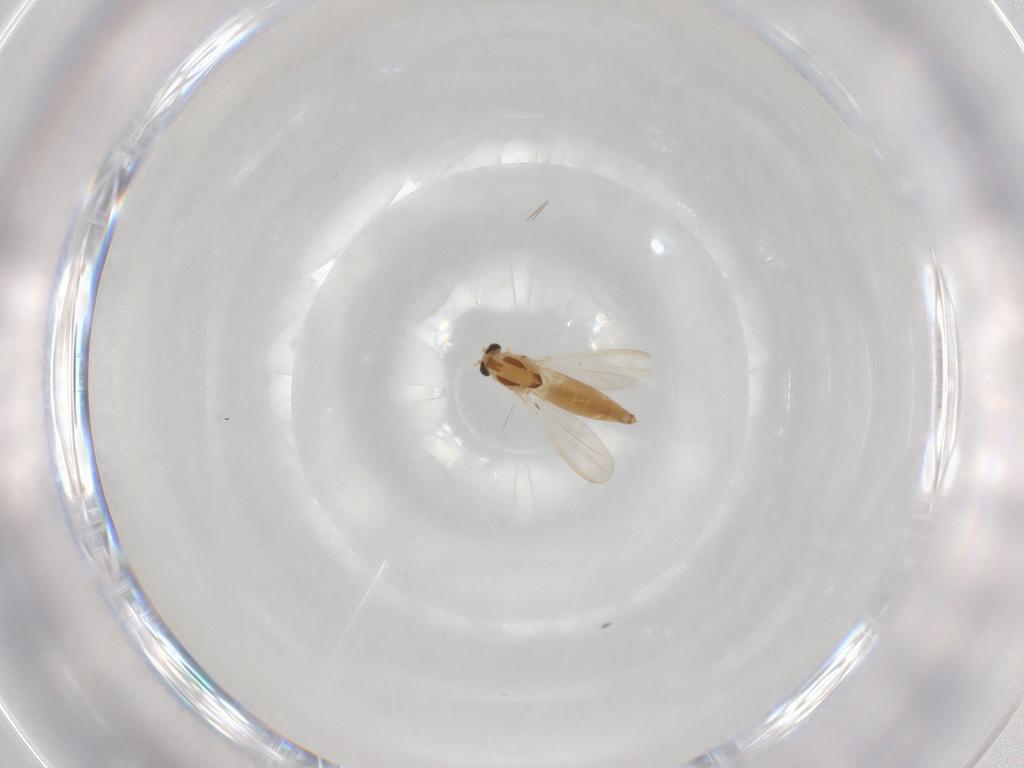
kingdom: Animalia
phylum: Arthropoda
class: Insecta
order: Diptera
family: Chironomidae
